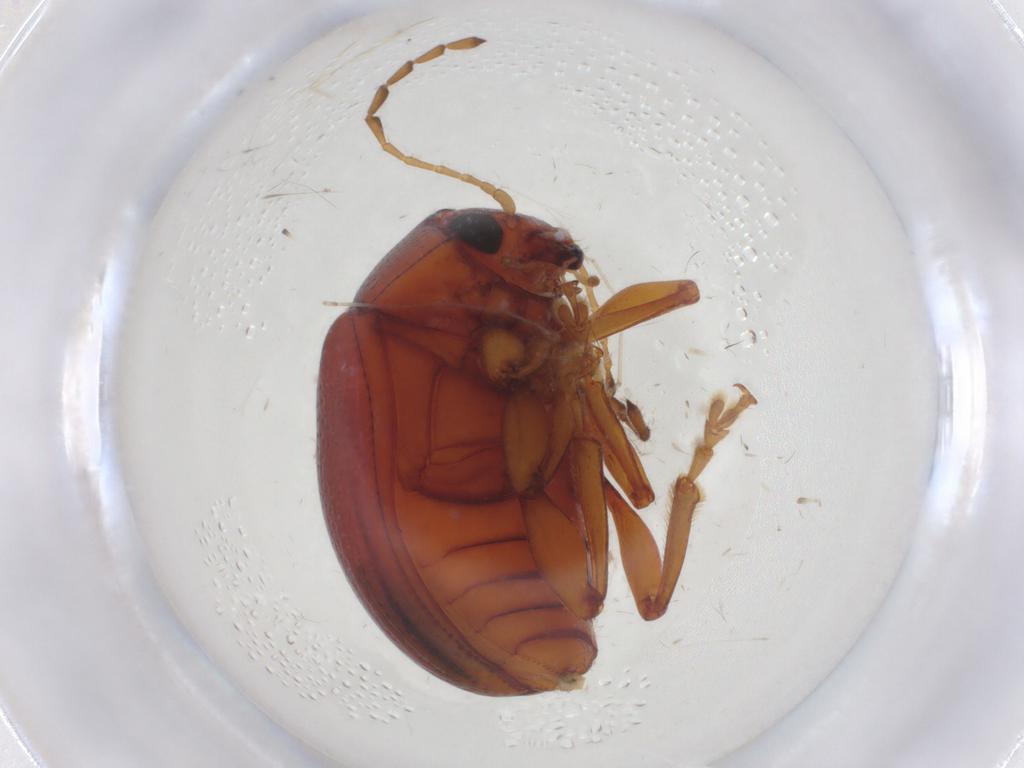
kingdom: Animalia
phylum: Arthropoda
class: Insecta
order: Coleoptera
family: Chrysomelidae
